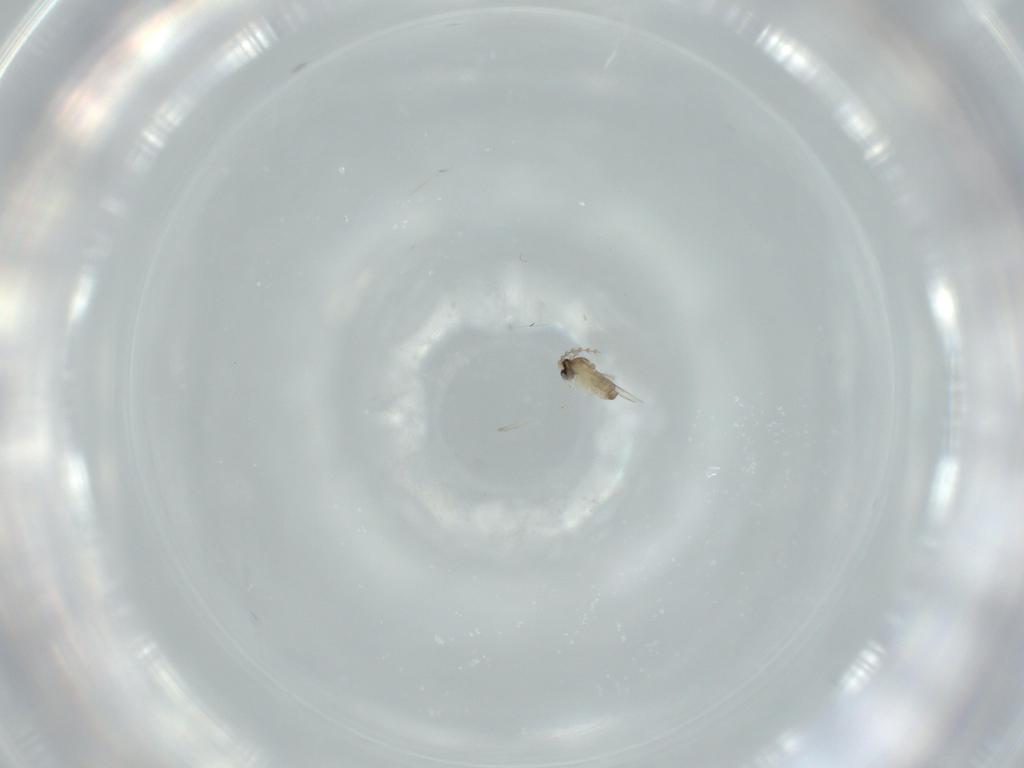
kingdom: Animalia
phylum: Arthropoda
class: Insecta
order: Diptera
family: Cecidomyiidae
